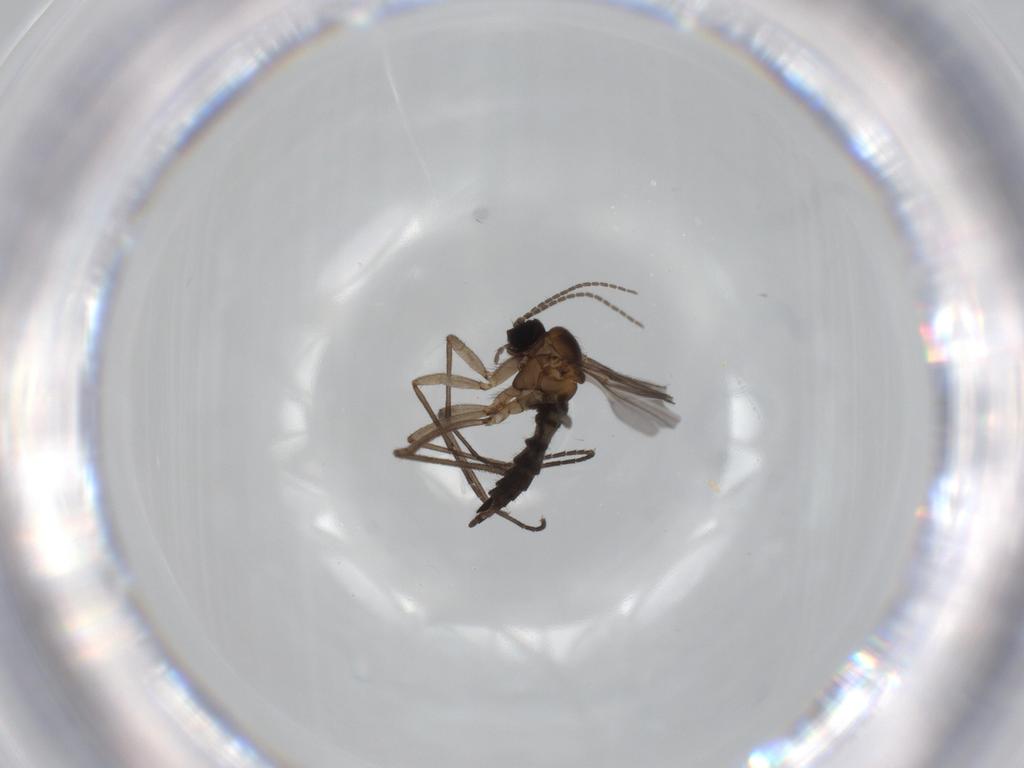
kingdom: Animalia
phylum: Arthropoda
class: Insecta
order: Diptera
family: Sciaridae
